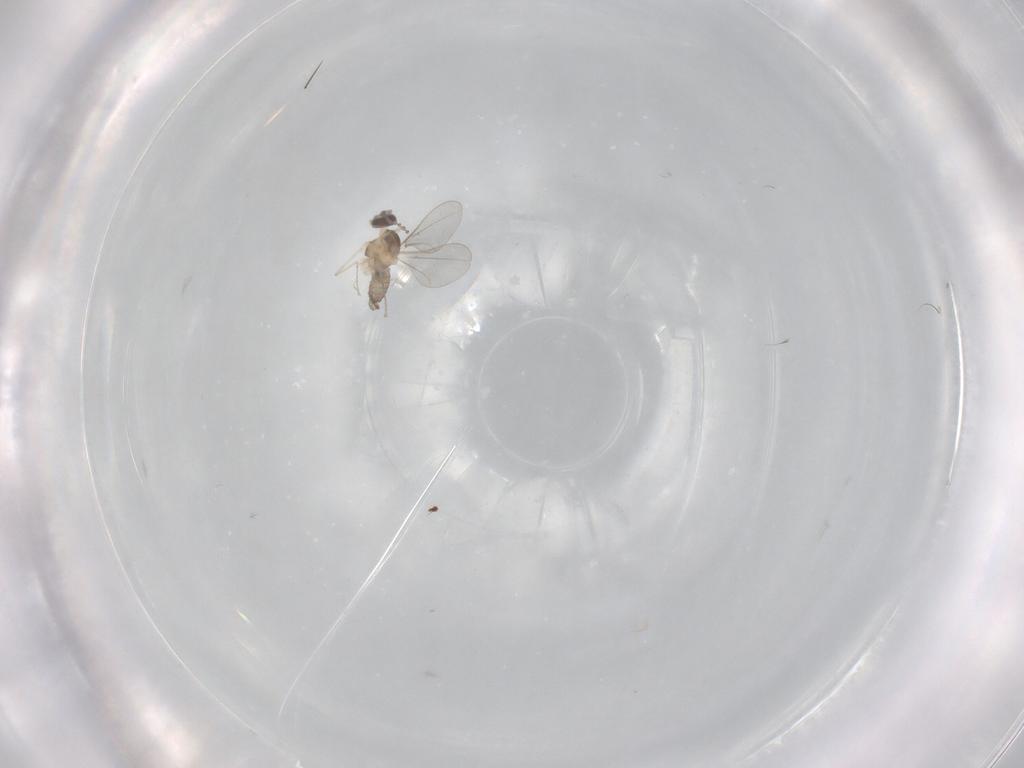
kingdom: Animalia
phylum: Arthropoda
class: Insecta
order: Diptera
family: Cecidomyiidae
